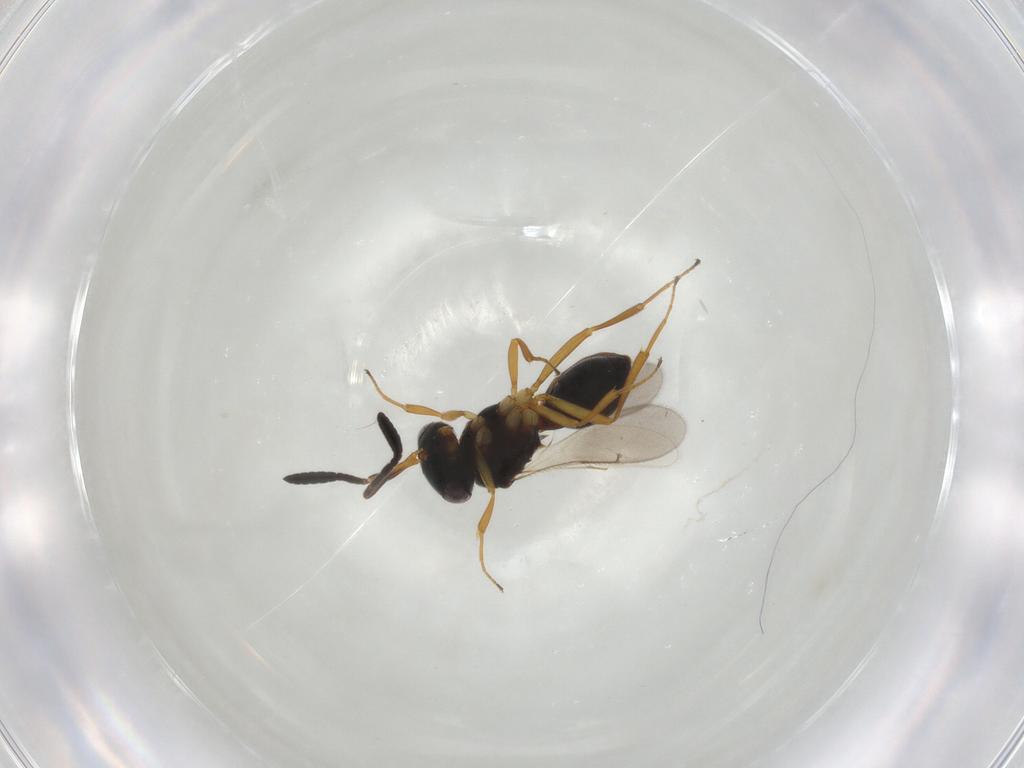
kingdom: Animalia
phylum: Arthropoda
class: Insecta
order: Hymenoptera
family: Scelionidae
